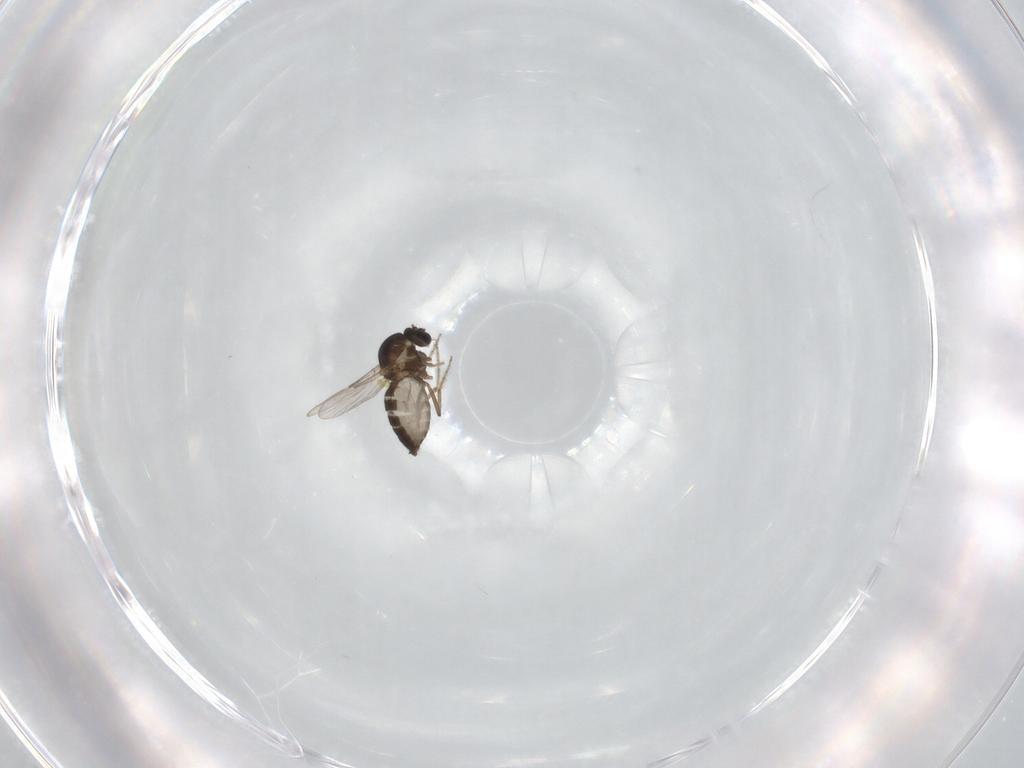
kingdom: Animalia
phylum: Arthropoda
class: Insecta
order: Diptera
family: Ceratopogonidae
